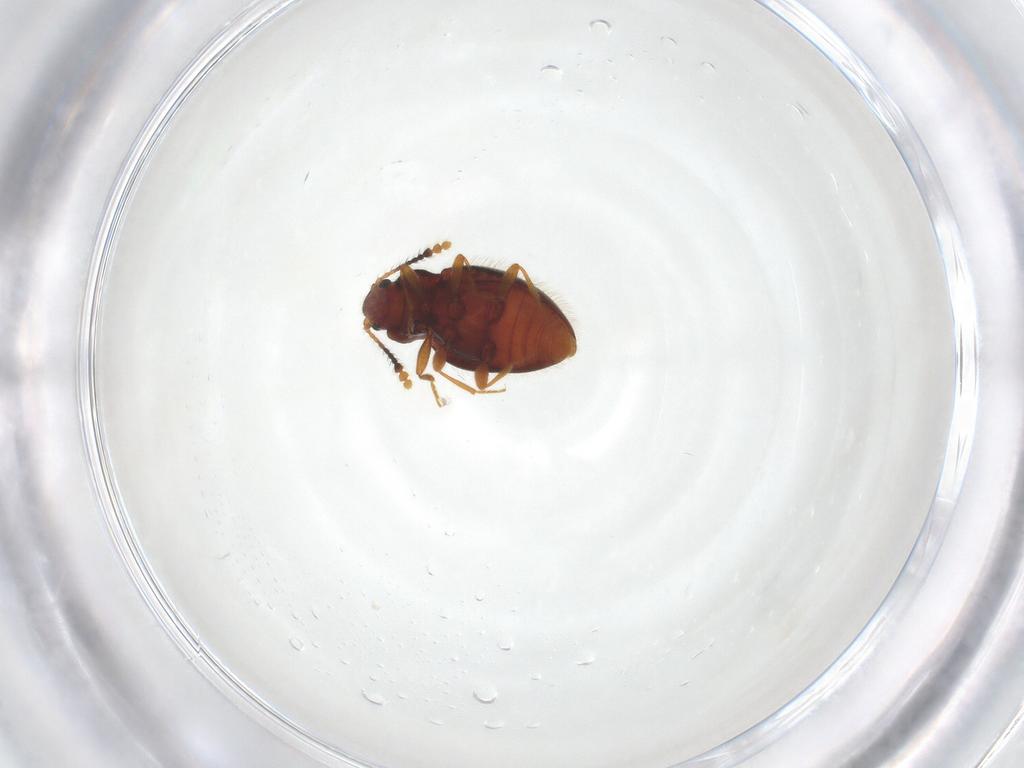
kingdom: Animalia
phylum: Arthropoda
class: Insecta
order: Coleoptera
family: Erotylidae
